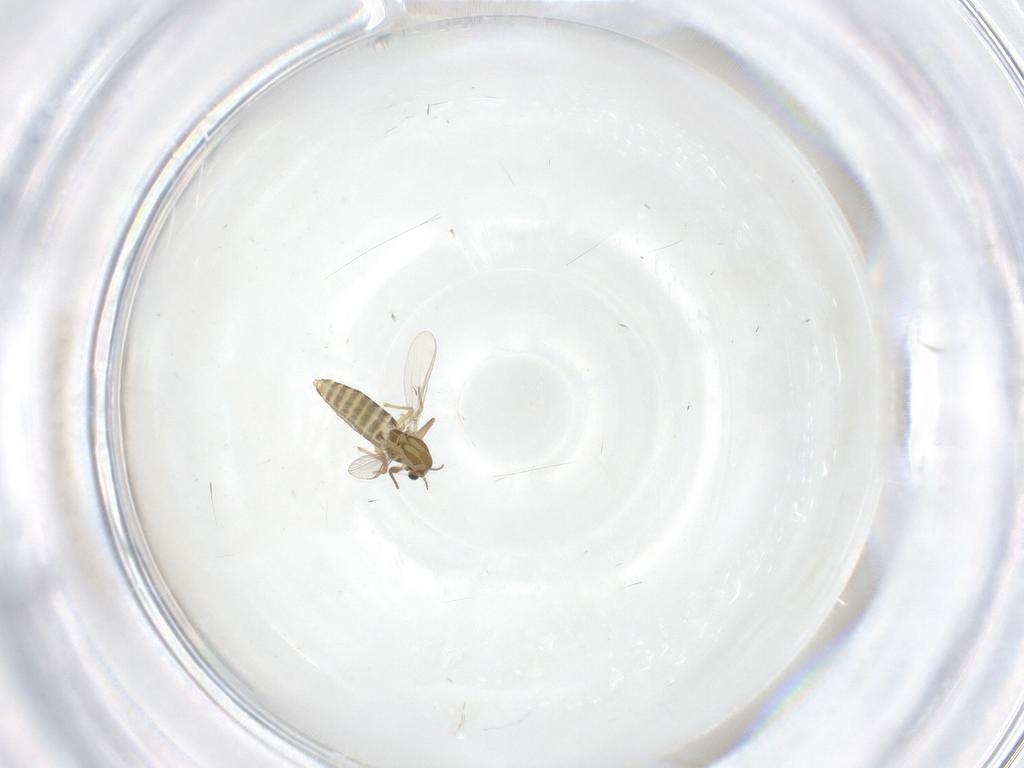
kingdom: Animalia
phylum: Arthropoda
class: Insecta
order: Diptera
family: Chironomidae
